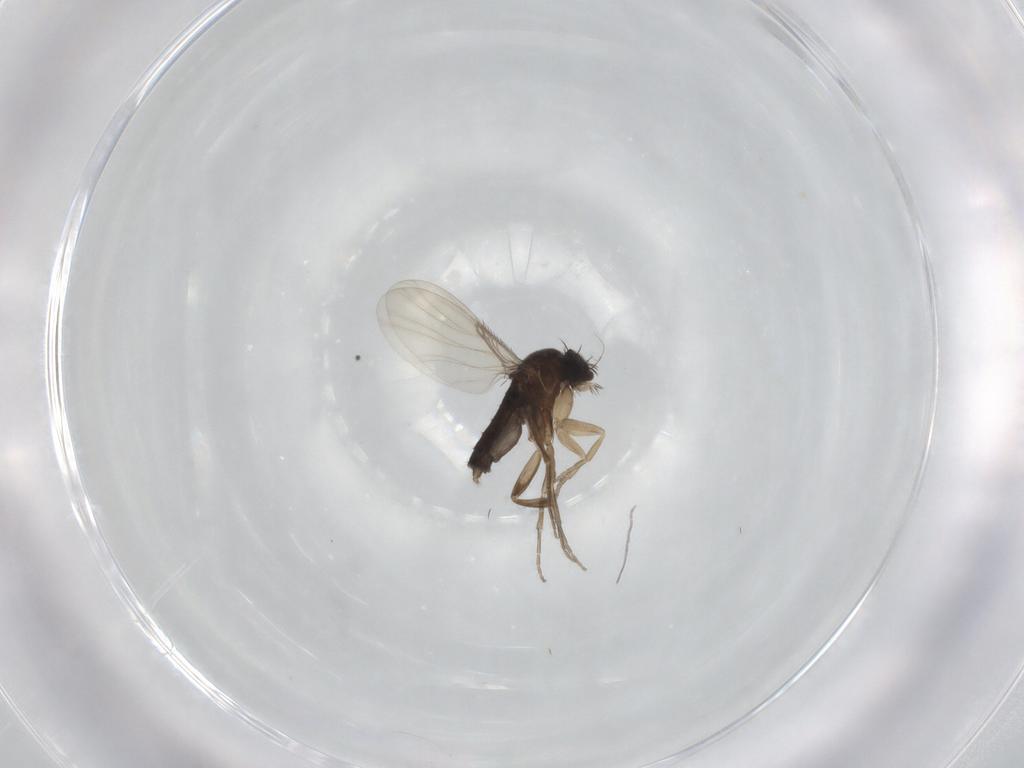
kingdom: Animalia
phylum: Arthropoda
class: Insecta
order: Diptera
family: Phoridae
